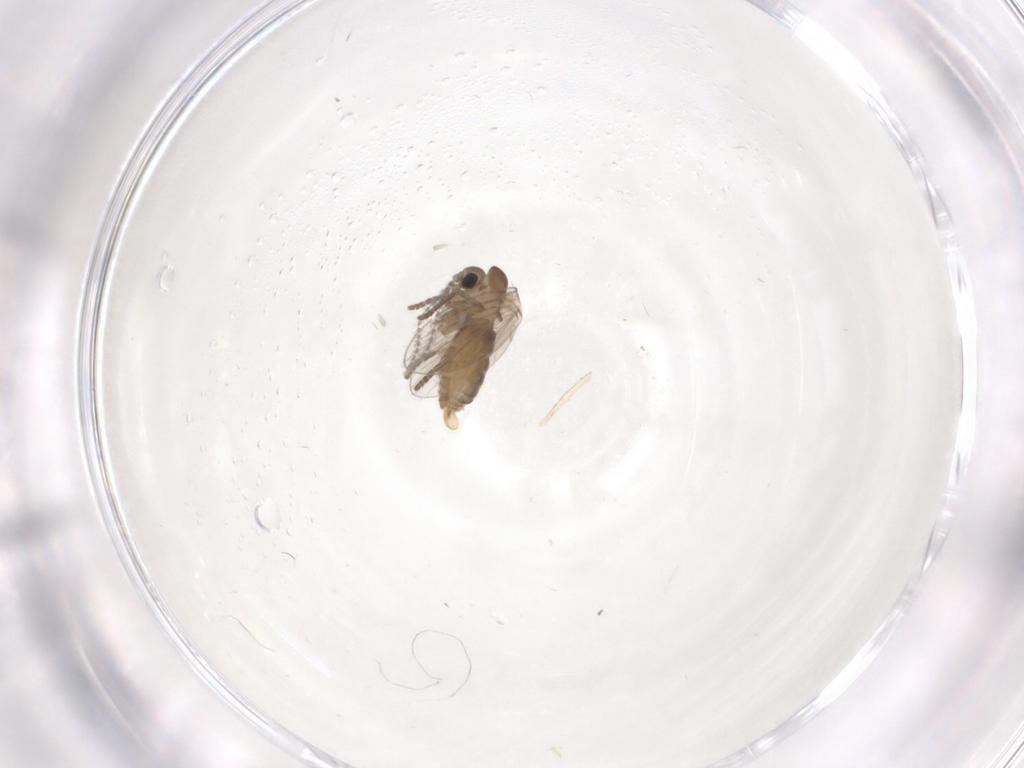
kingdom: Animalia
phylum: Arthropoda
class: Insecta
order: Diptera
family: Psychodidae
